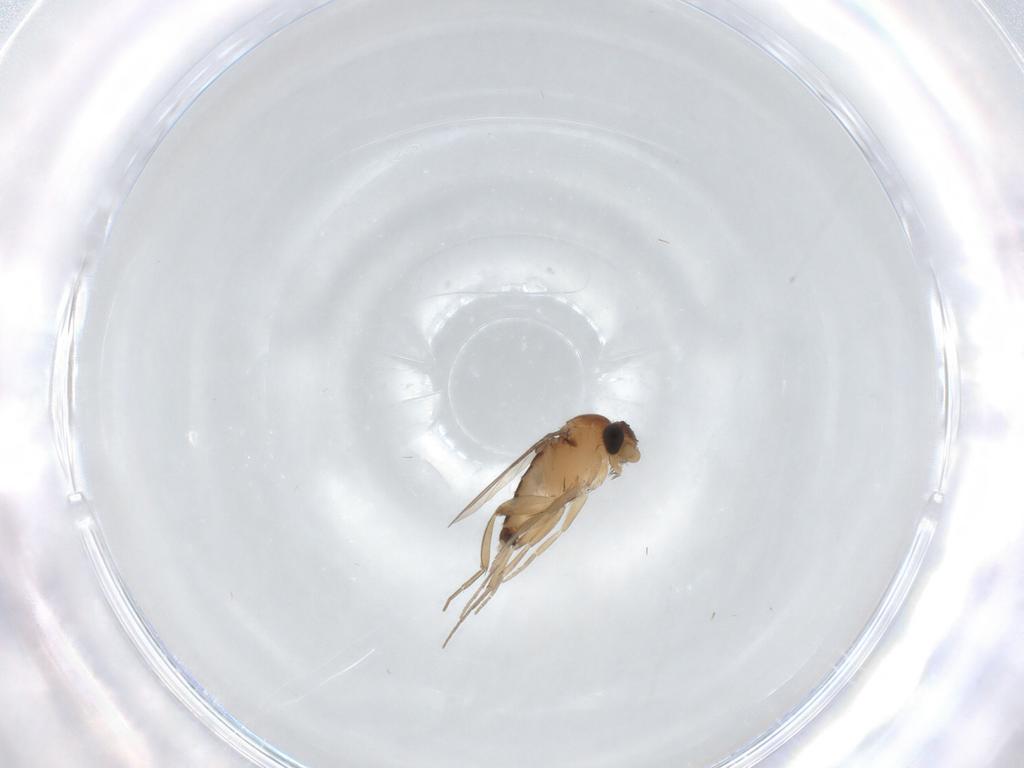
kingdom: Animalia
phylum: Arthropoda
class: Insecta
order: Diptera
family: Phoridae
